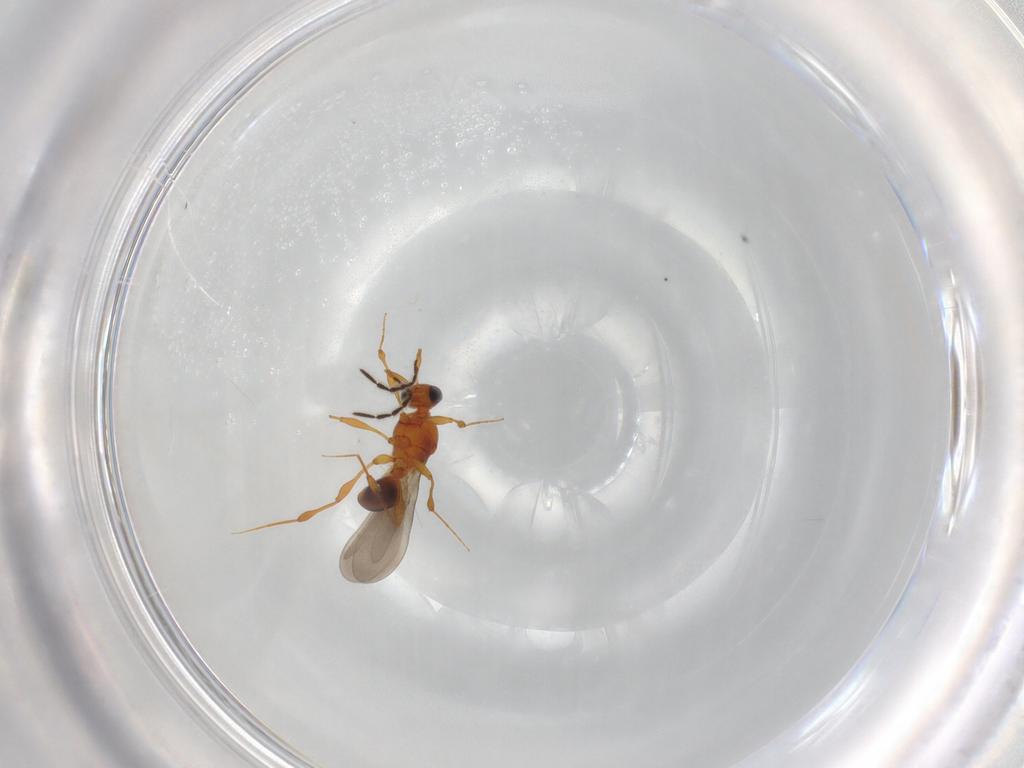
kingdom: Animalia
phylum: Arthropoda
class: Insecta
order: Hymenoptera
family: Platygastridae
